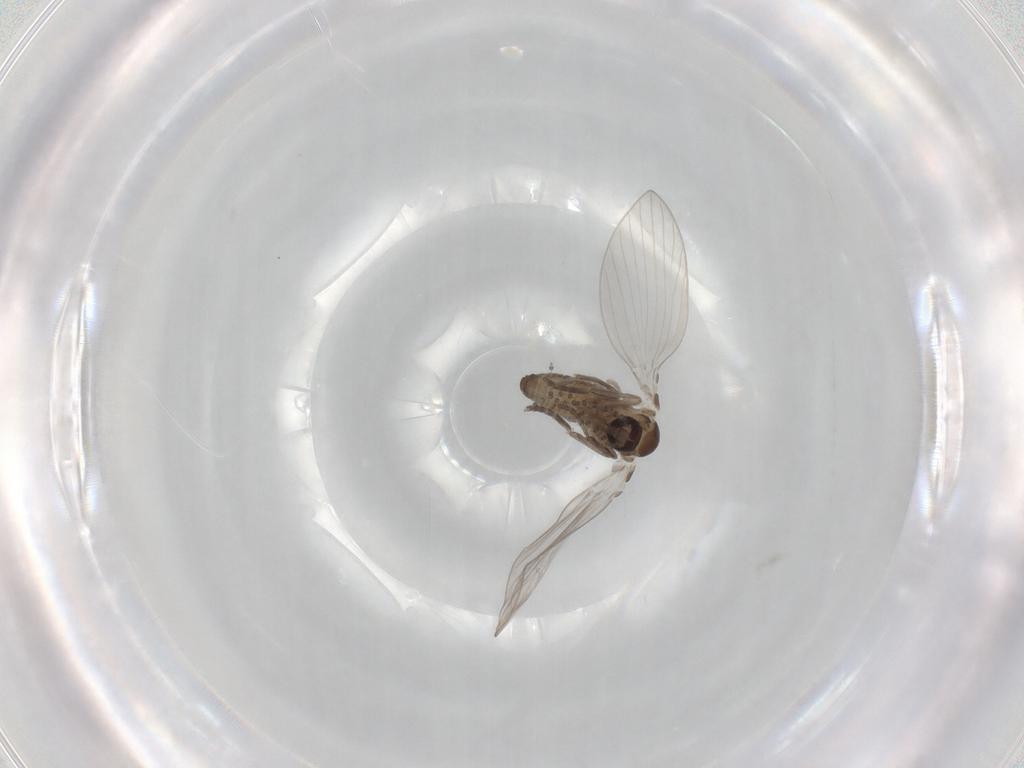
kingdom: Animalia
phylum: Arthropoda
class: Insecta
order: Diptera
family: Psychodidae
